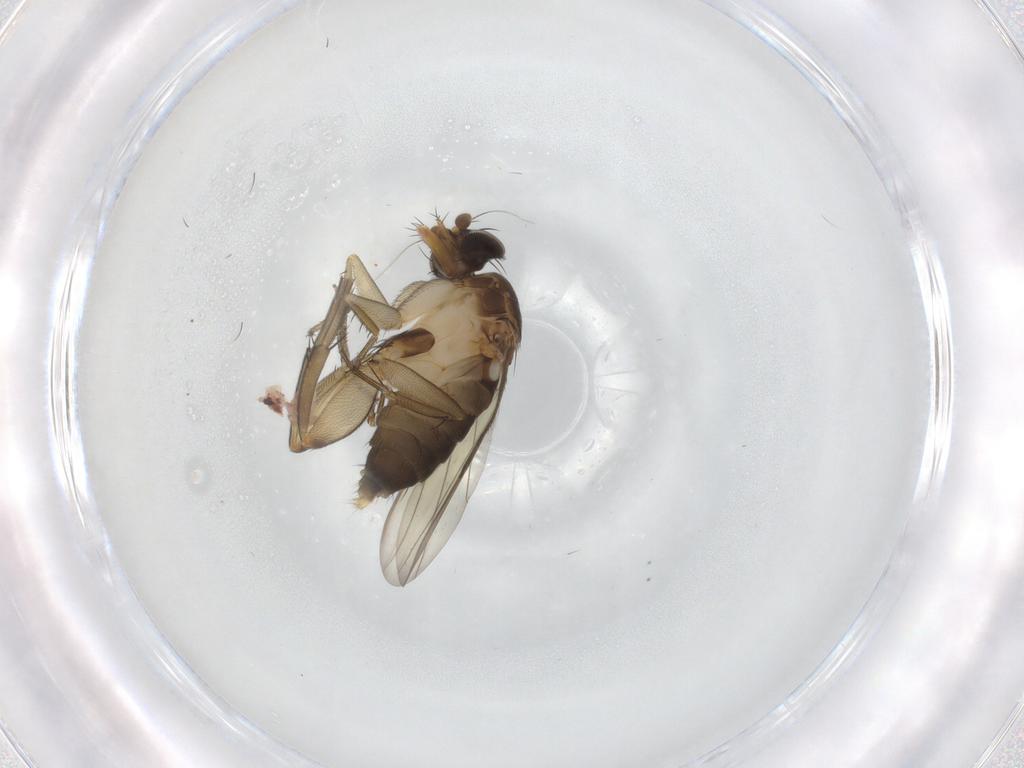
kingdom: Animalia
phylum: Arthropoda
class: Insecta
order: Diptera
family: Phoridae
